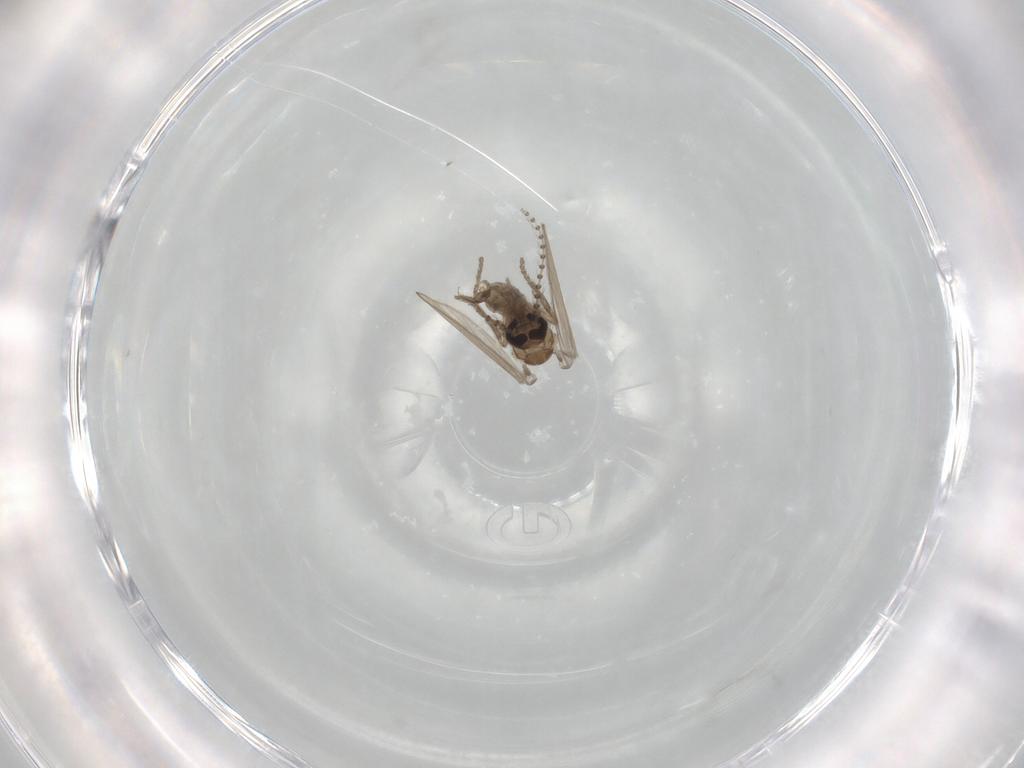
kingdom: Animalia
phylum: Arthropoda
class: Insecta
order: Diptera
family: Psychodidae
